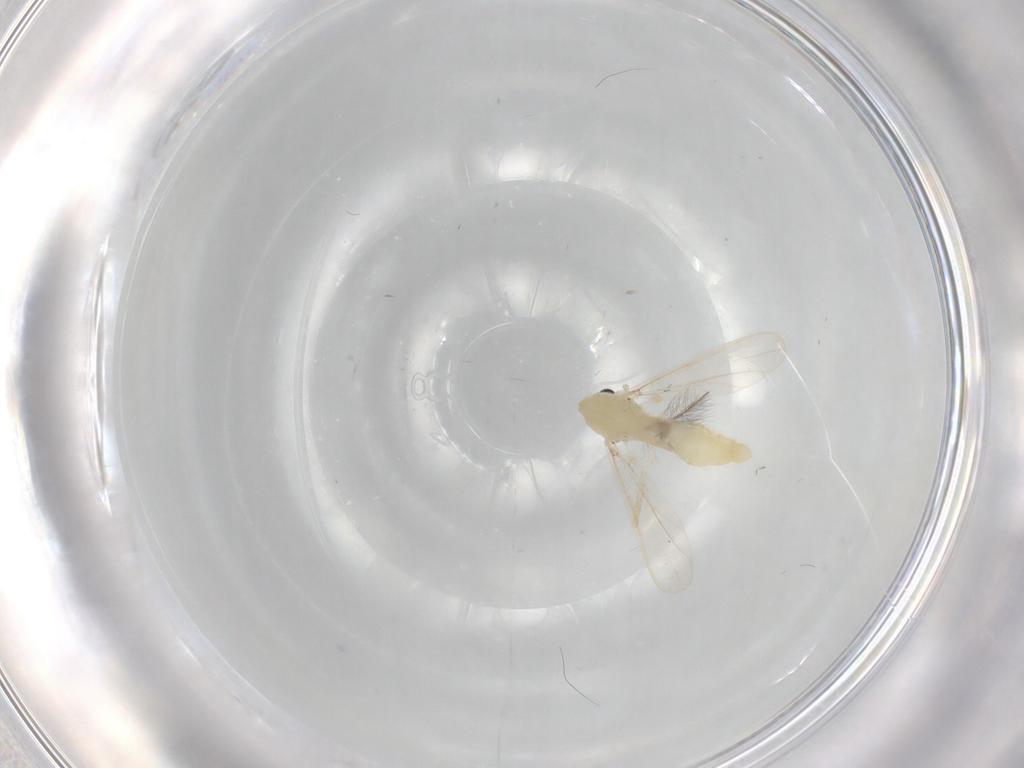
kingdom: Animalia
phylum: Arthropoda
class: Insecta
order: Diptera
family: Chironomidae
